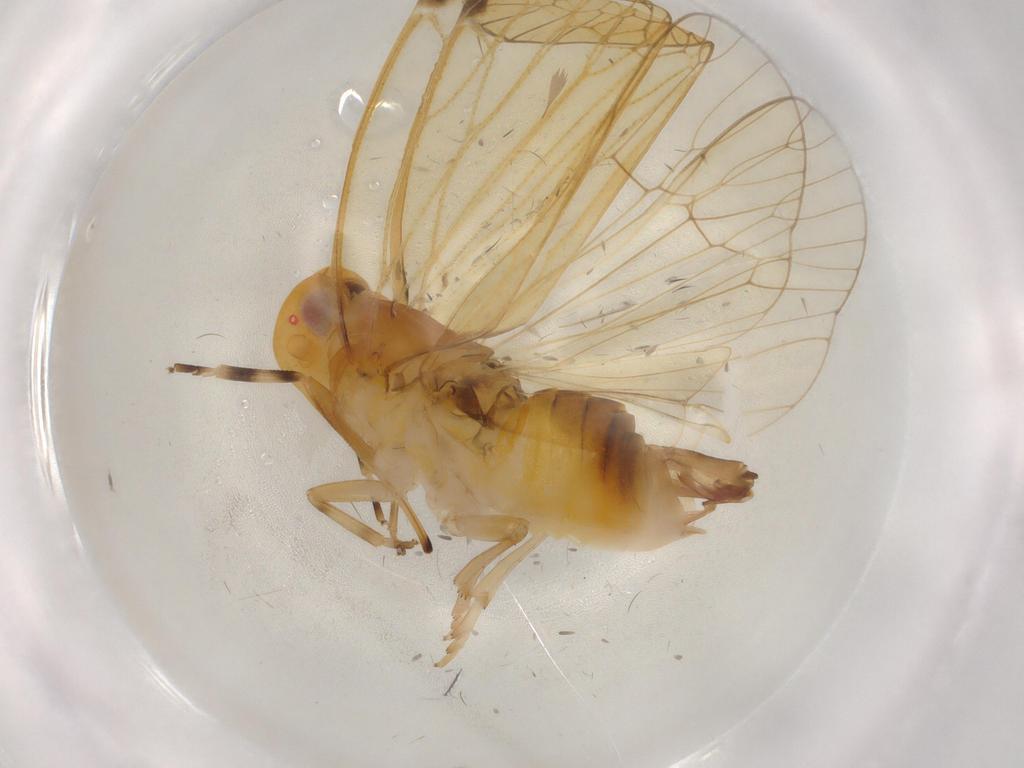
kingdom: Animalia
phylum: Arthropoda
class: Insecta
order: Hemiptera
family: Cixiidae
